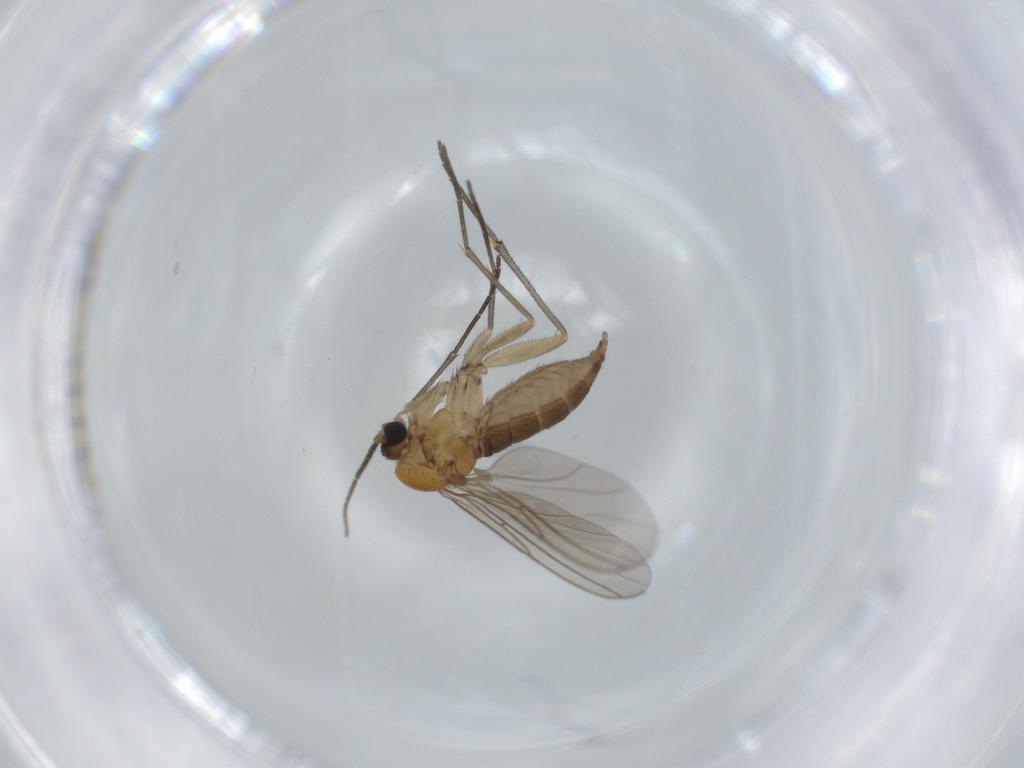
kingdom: Animalia
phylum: Arthropoda
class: Insecta
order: Diptera
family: Sciaridae
